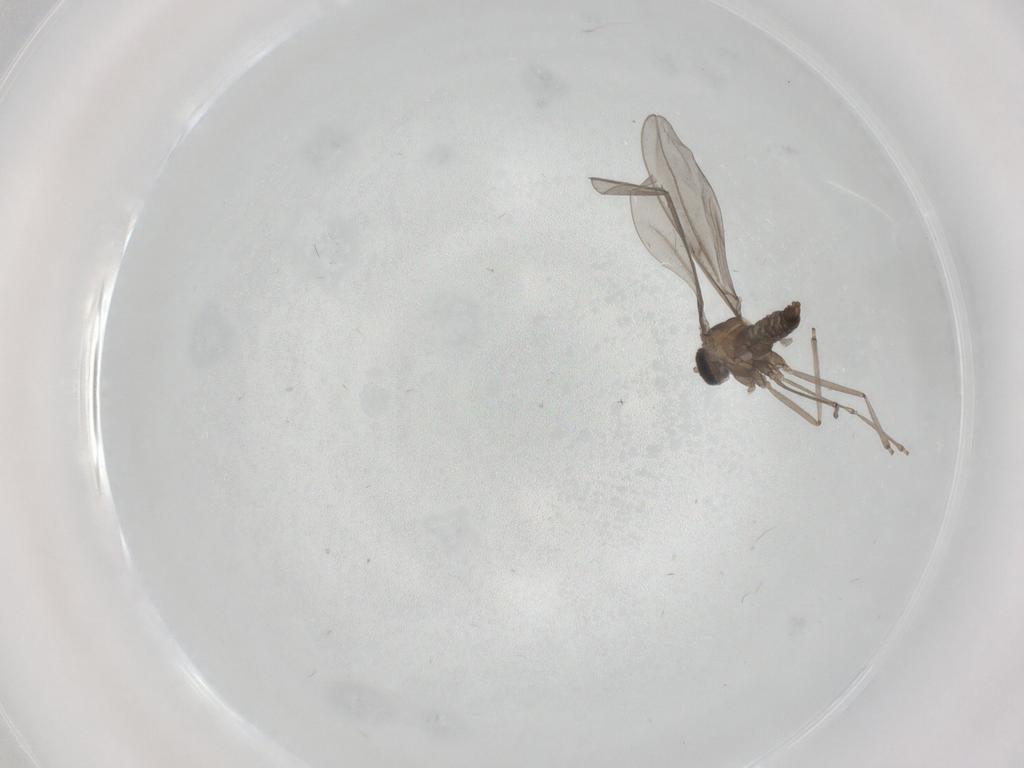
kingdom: Animalia
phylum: Arthropoda
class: Insecta
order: Diptera
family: Cecidomyiidae
